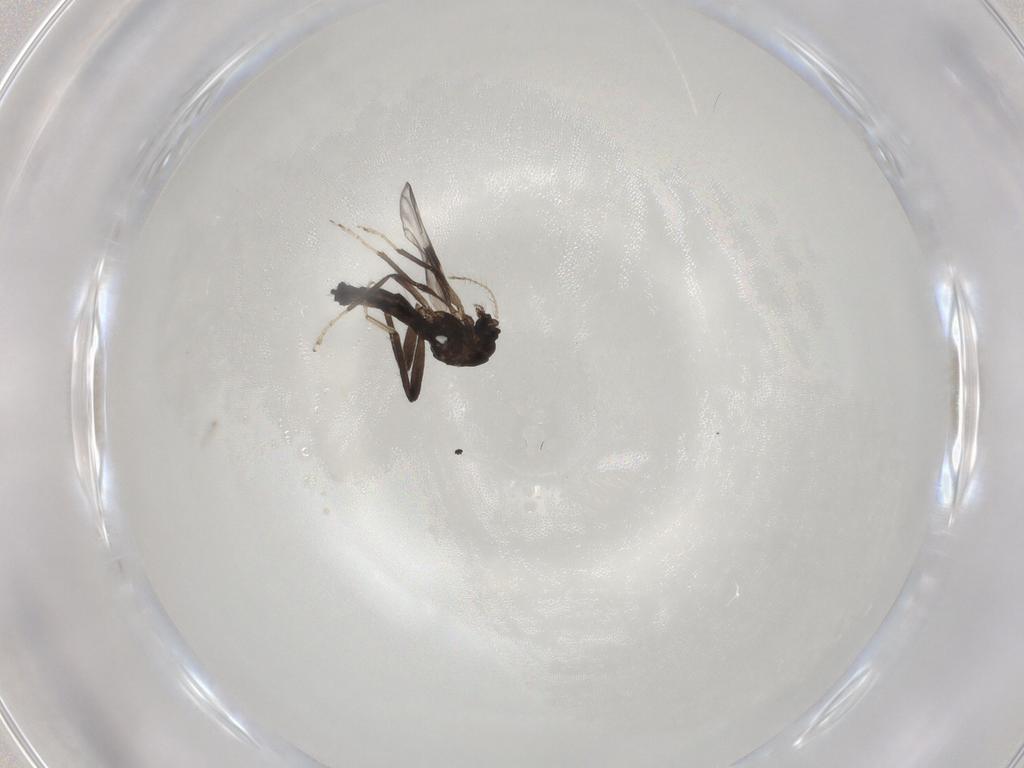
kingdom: Animalia
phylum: Arthropoda
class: Insecta
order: Diptera
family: Ceratopogonidae
